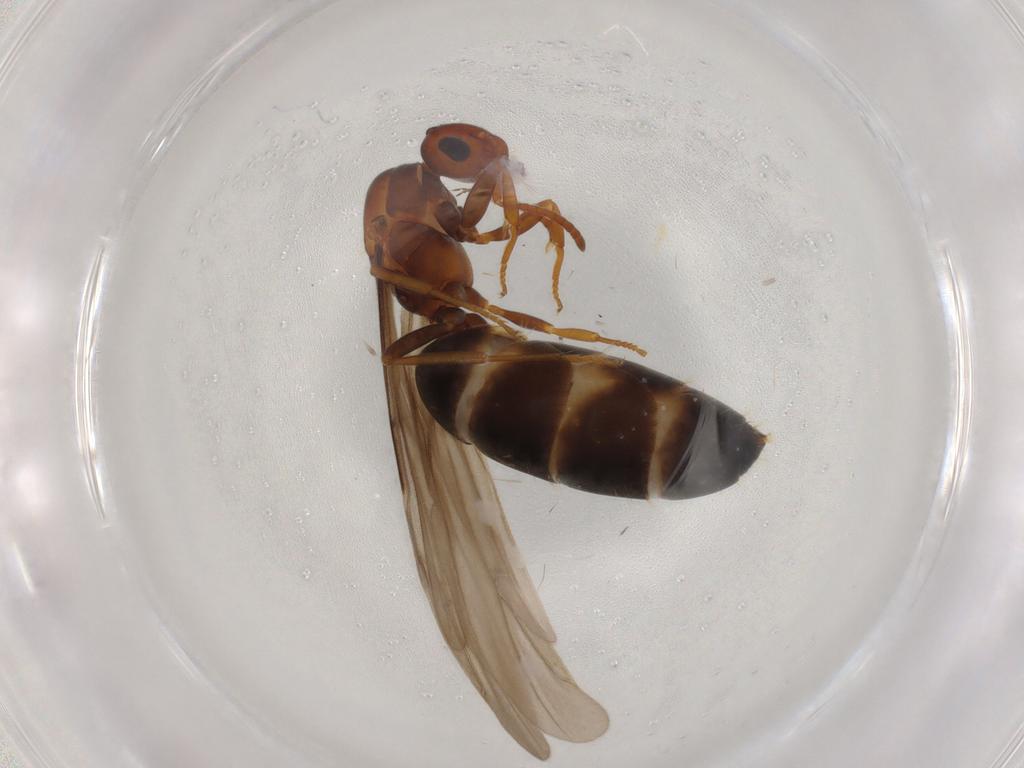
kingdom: Animalia
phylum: Arthropoda
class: Insecta
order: Hymenoptera
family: Formicidae
